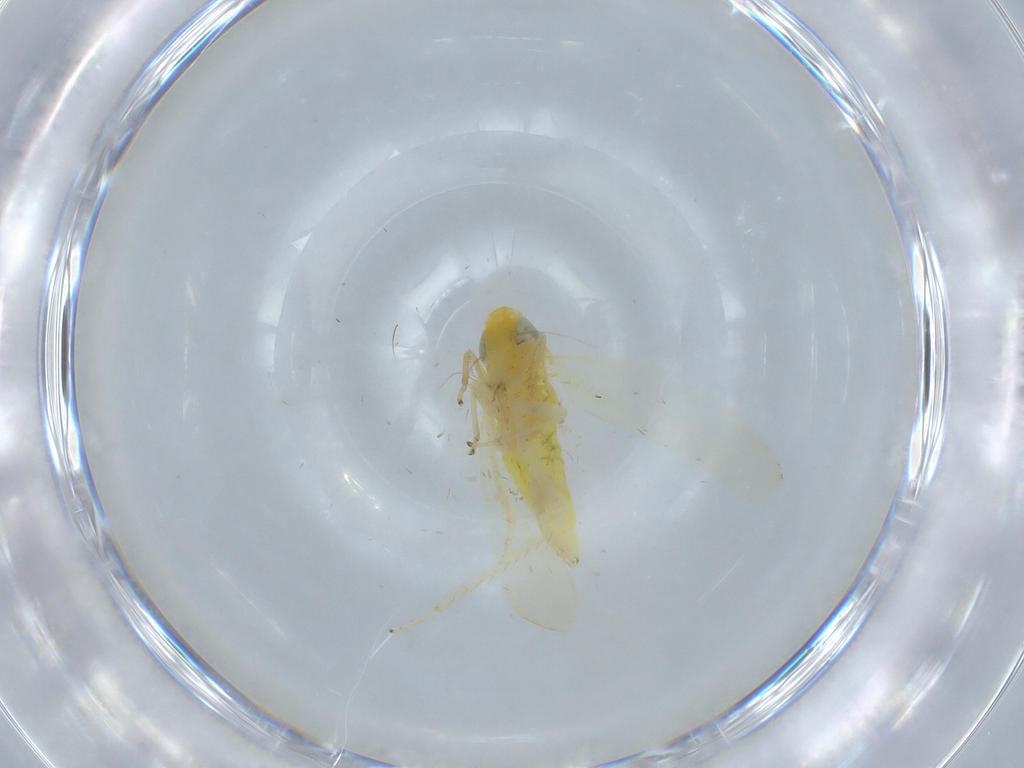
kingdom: Animalia
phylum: Arthropoda
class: Insecta
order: Hemiptera
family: Cicadellidae
